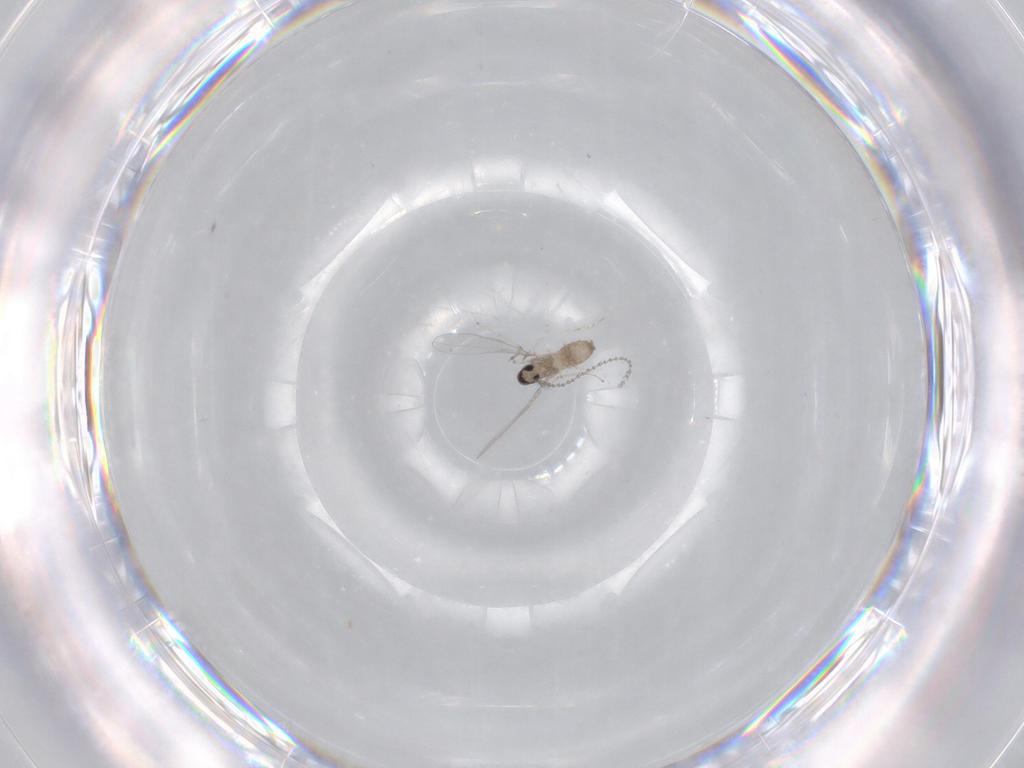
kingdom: Animalia
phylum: Arthropoda
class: Insecta
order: Diptera
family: Cecidomyiidae
